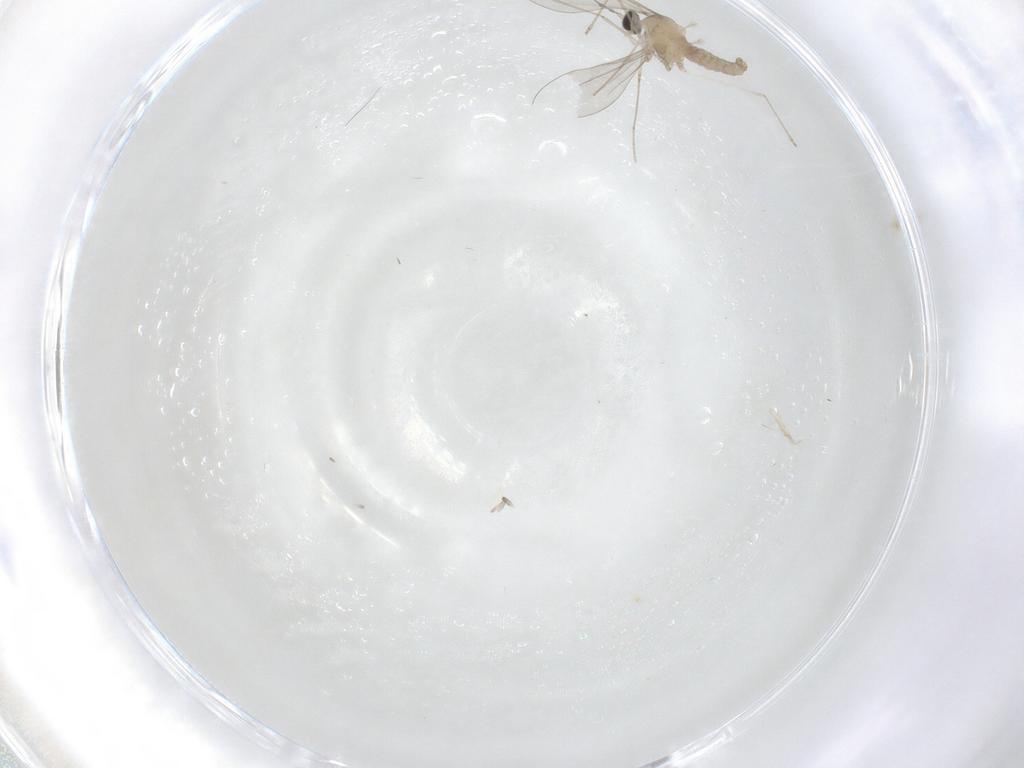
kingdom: Animalia
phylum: Arthropoda
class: Insecta
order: Diptera
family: Cecidomyiidae
